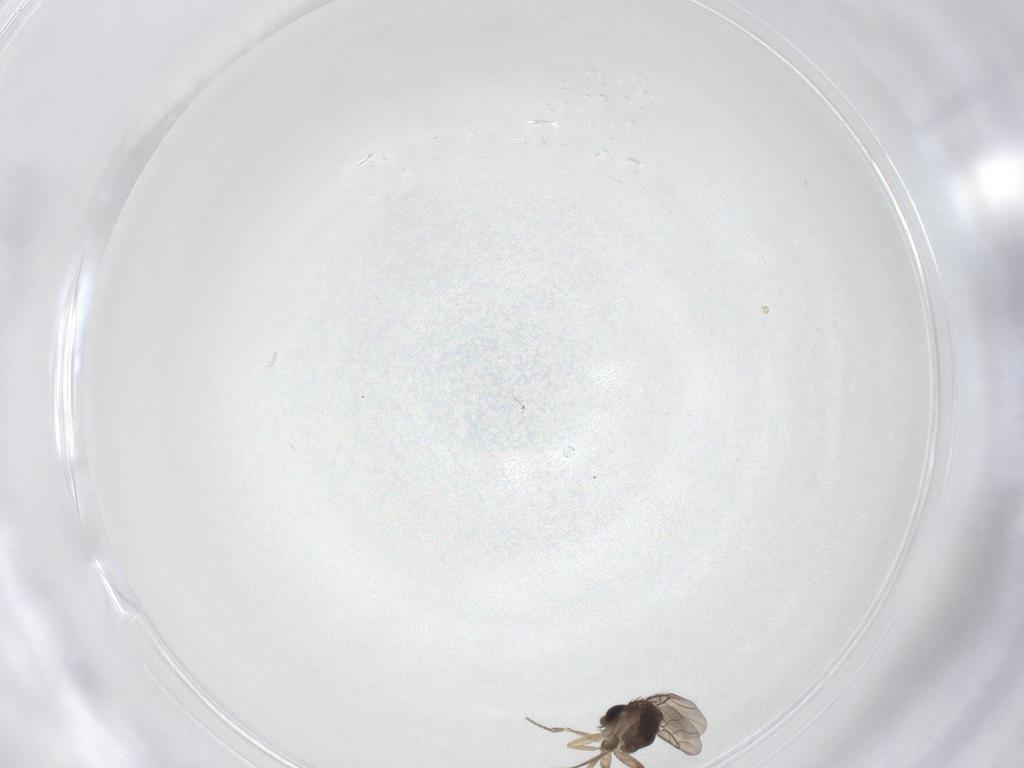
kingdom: Animalia
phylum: Arthropoda
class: Insecta
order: Diptera
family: Phoridae
